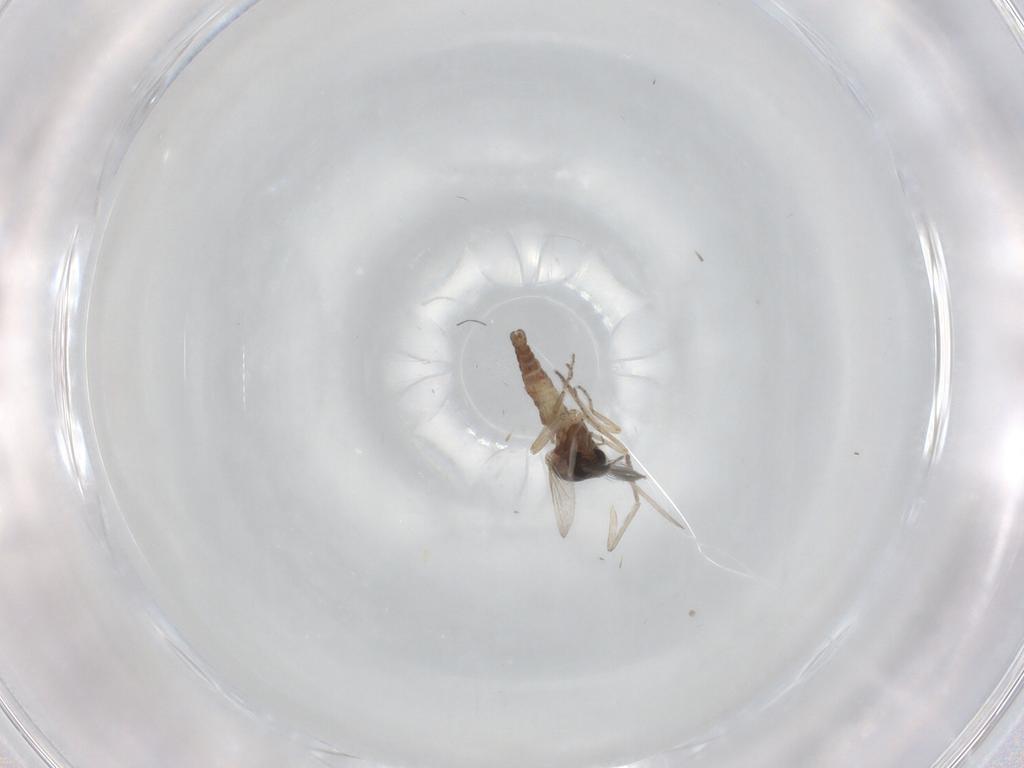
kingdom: Animalia
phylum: Arthropoda
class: Insecta
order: Diptera
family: Ceratopogonidae
